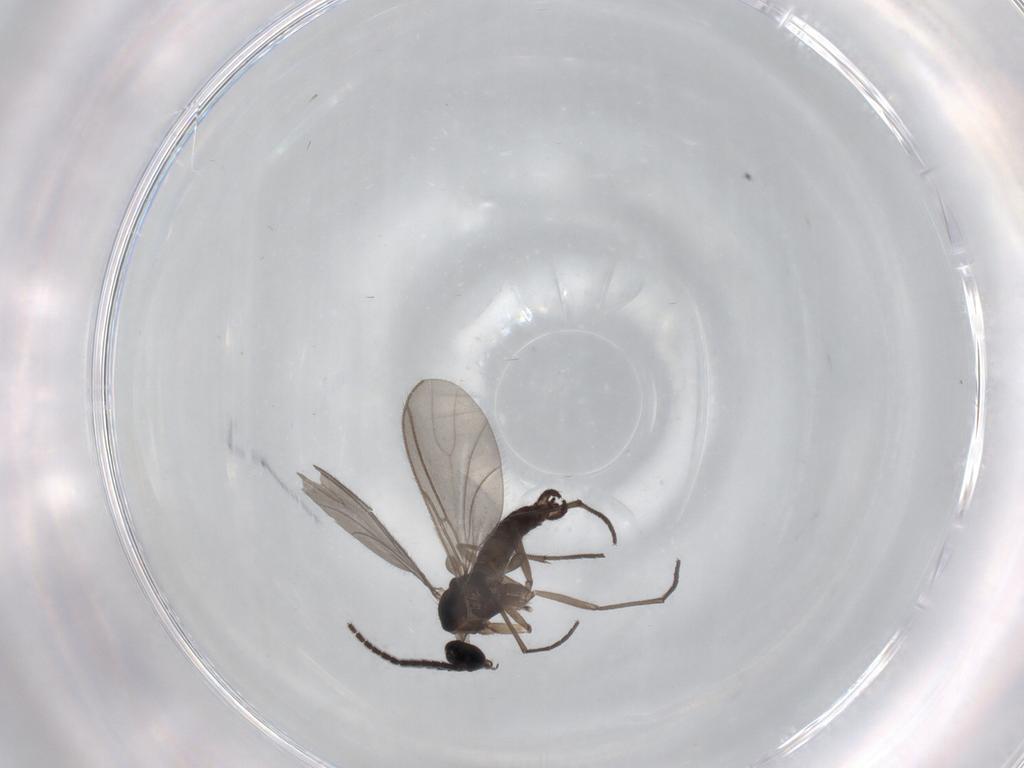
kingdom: Animalia
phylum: Arthropoda
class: Insecta
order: Diptera
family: Sciaridae
